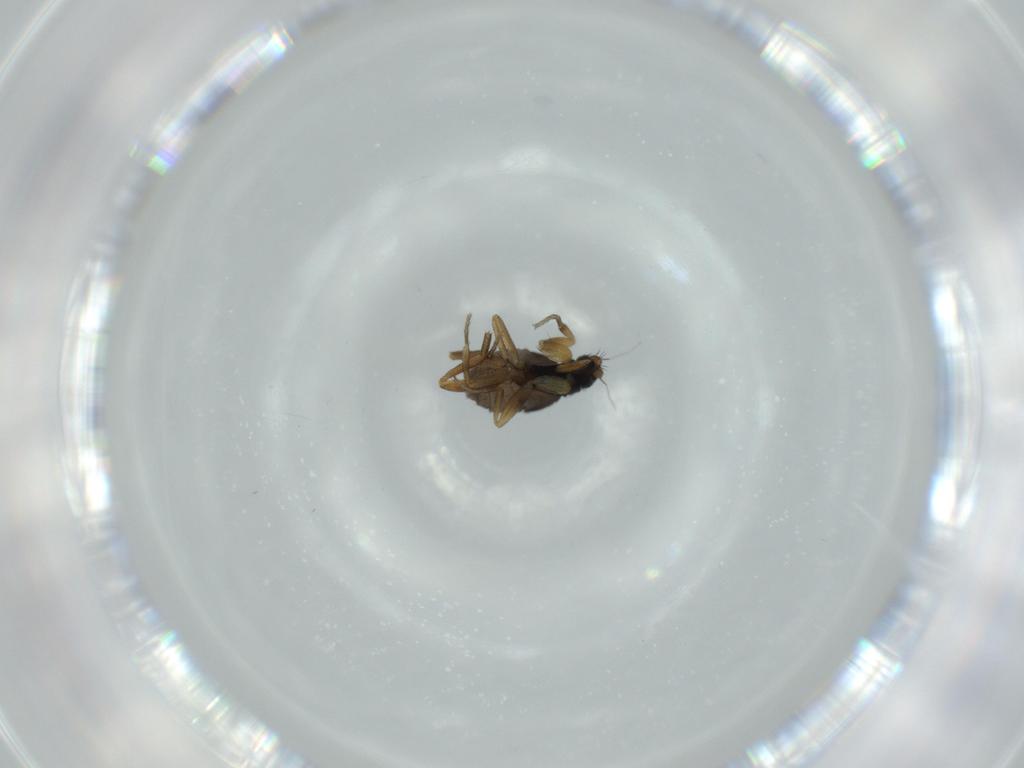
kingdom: Animalia
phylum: Arthropoda
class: Insecta
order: Diptera
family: Phoridae
